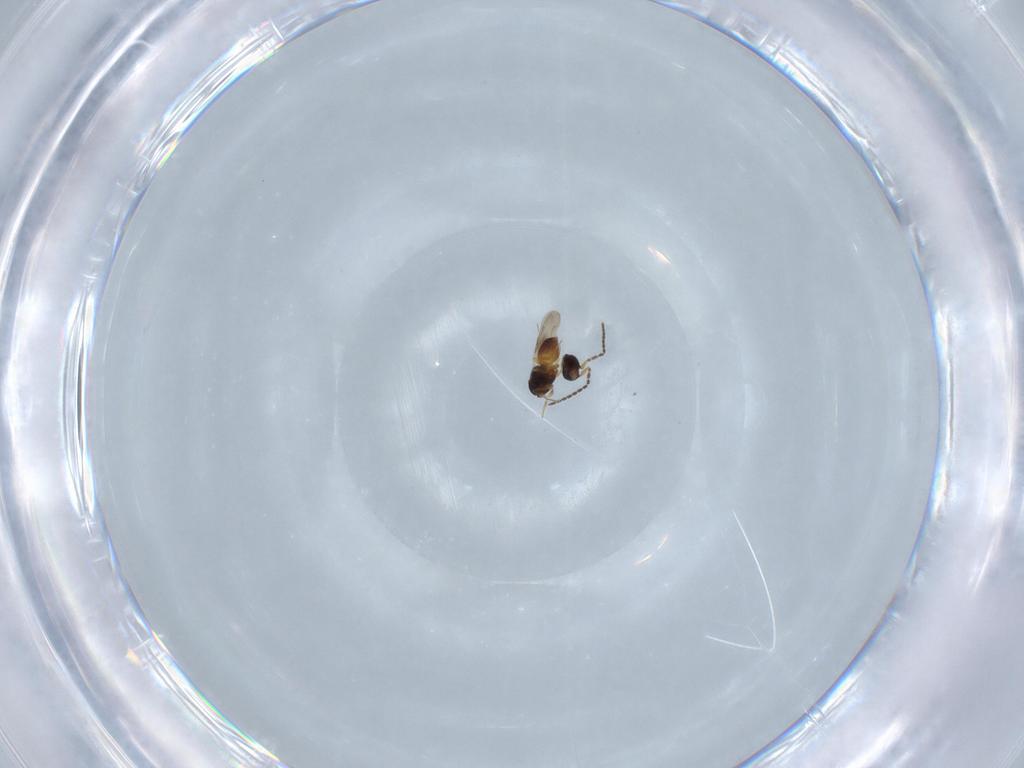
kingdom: Animalia
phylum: Arthropoda
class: Insecta
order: Hymenoptera
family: Scelionidae
